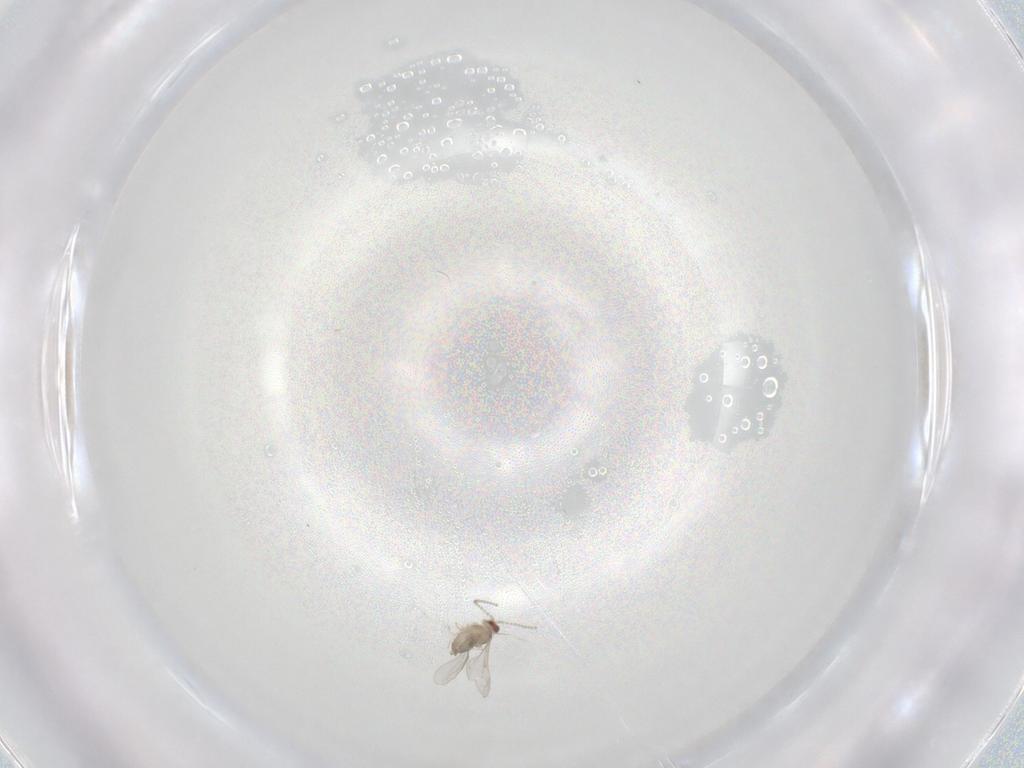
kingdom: Animalia
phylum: Arthropoda
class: Insecta
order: Diptera
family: Cecidomyiidae
